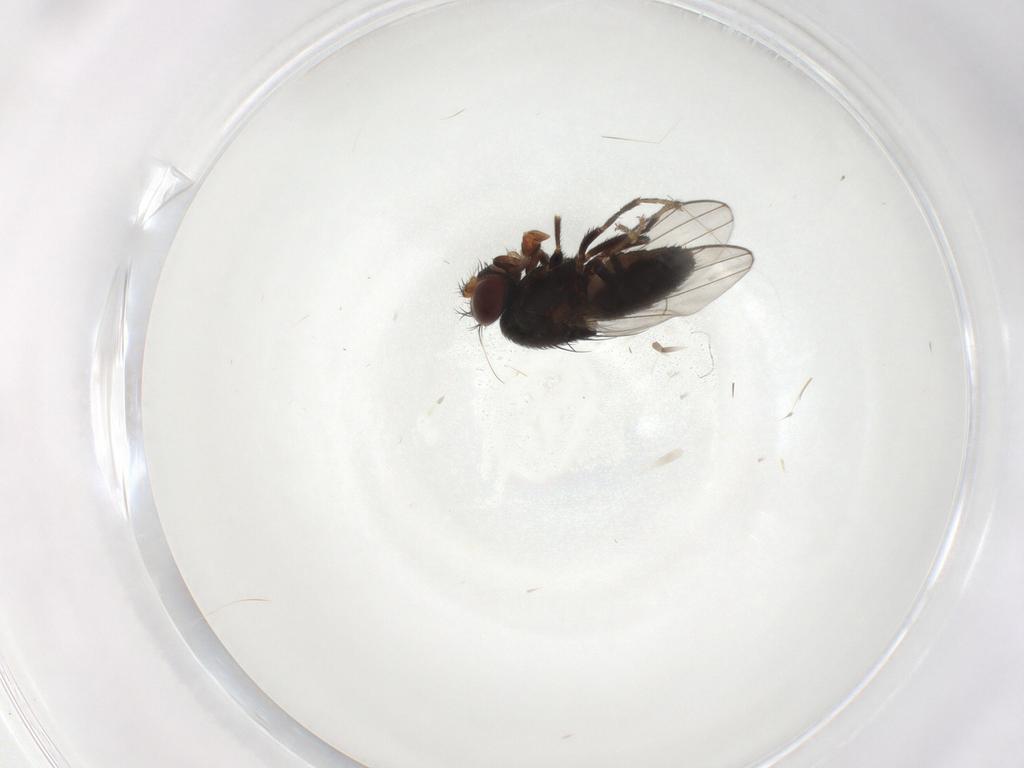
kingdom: Animalia
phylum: Arthropoda
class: Insecta
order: Diptera
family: Ephydridae
